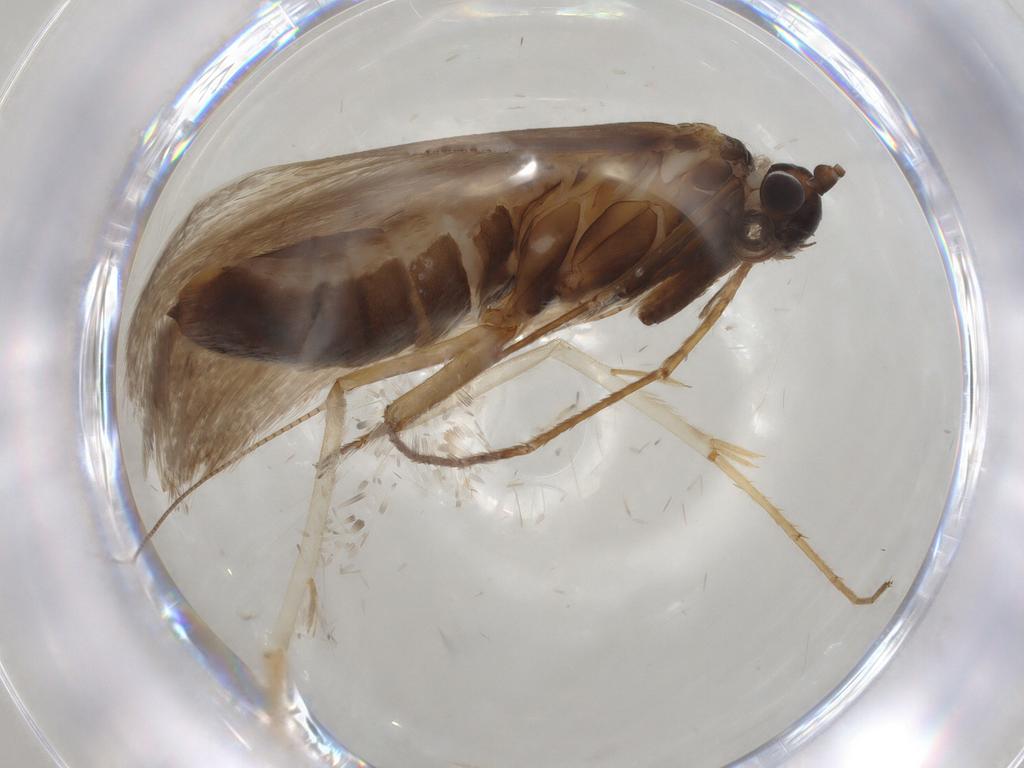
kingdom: Animalia
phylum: Arthropoda
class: Insecta
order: Lepidoptera
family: Adelidae
